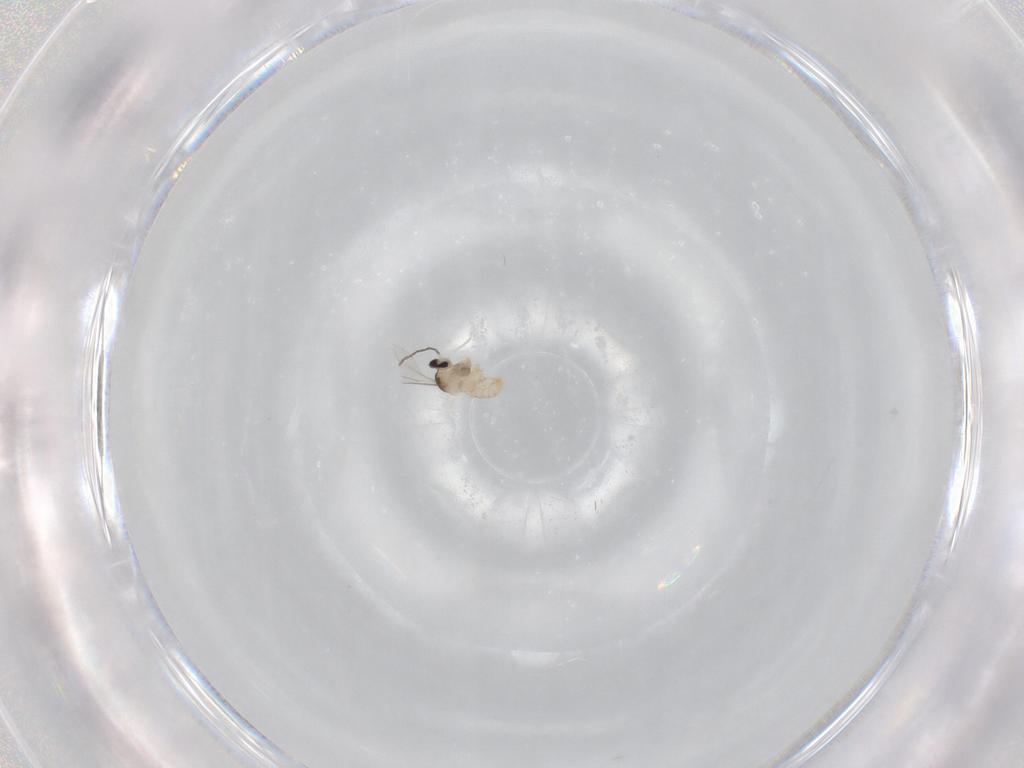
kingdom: Animalia
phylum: Arthropoda
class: Insecta
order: Diptera
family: Cecidomyiidae
